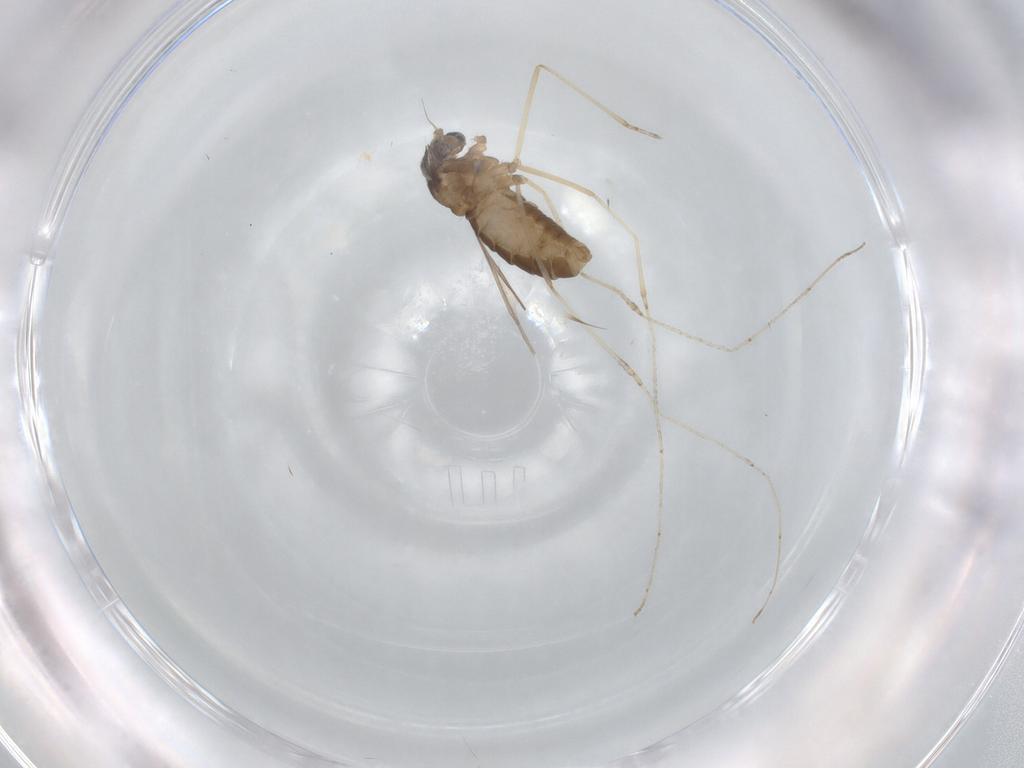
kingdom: Animalia
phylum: Arthropoda
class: Insecta
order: Diptera
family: Cecidomyiidae
